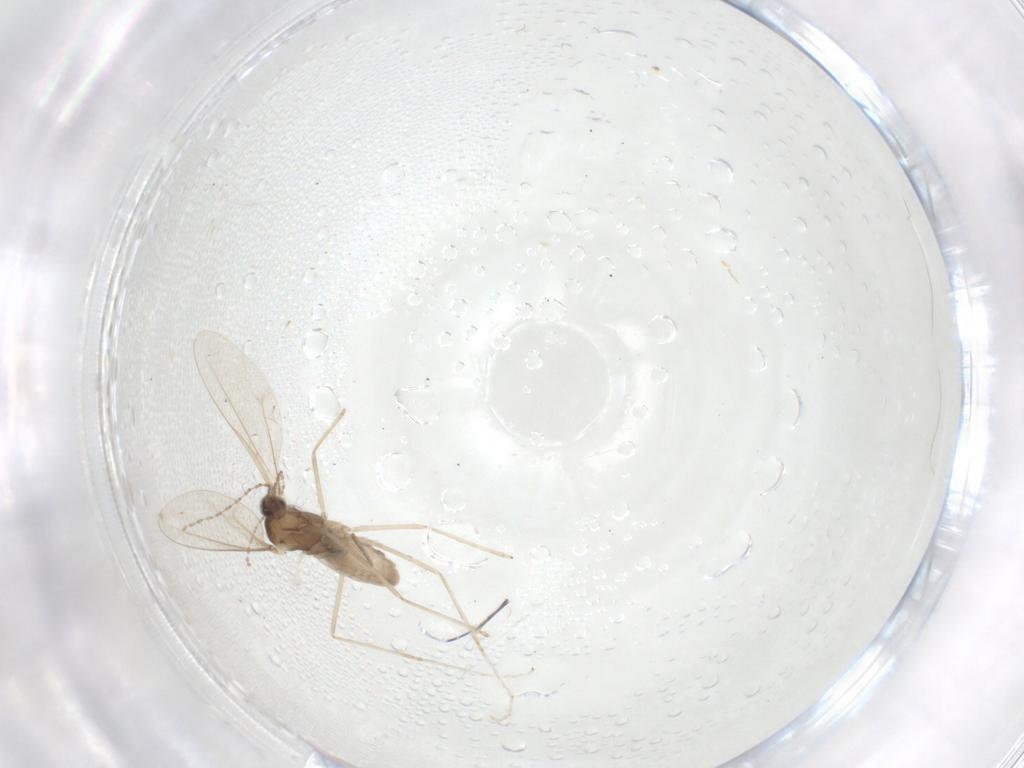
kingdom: Animalia
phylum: Arthropoda
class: Insecta
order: Diptera
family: Cecidomyiidae
